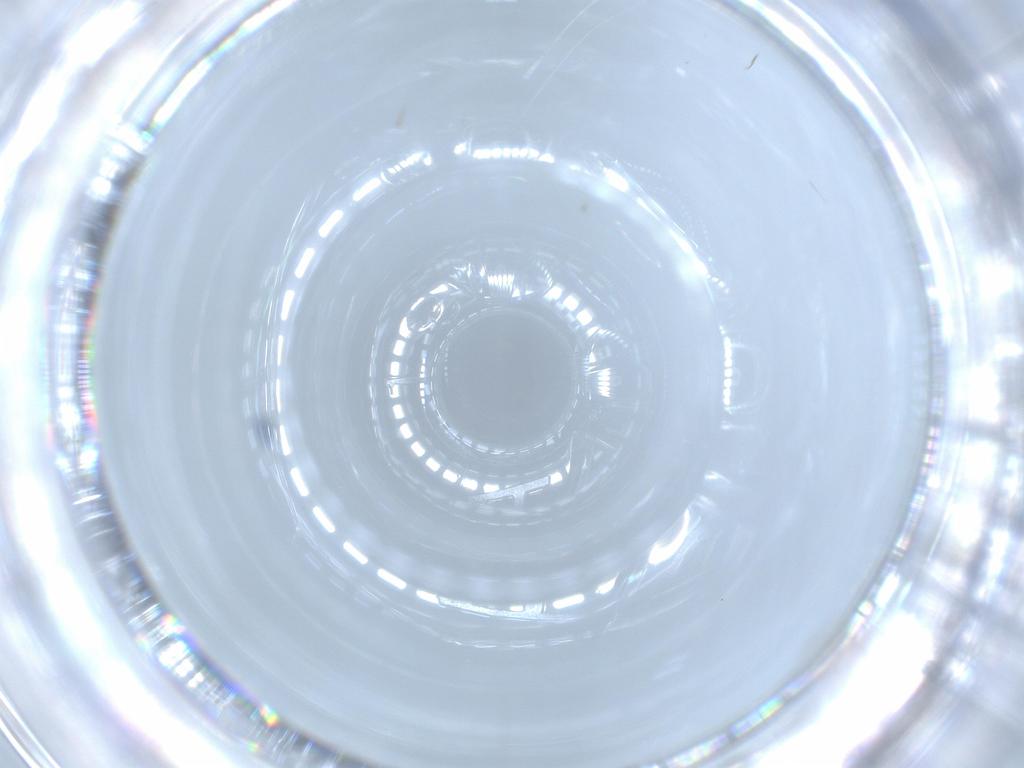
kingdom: Animalia
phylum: Arthropoda
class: Insecta
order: Diptera
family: Cecidomyiidae
